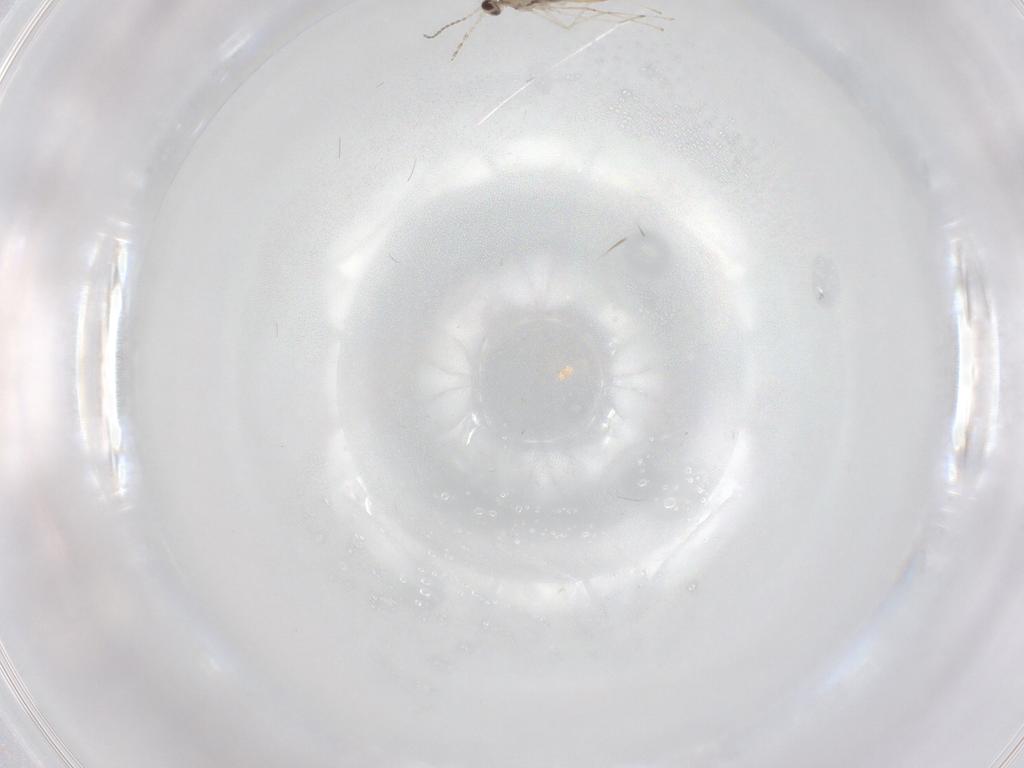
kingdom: Animalia
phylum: Arthropoda
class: Insecta
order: Diptera
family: Cecidomyiidae
